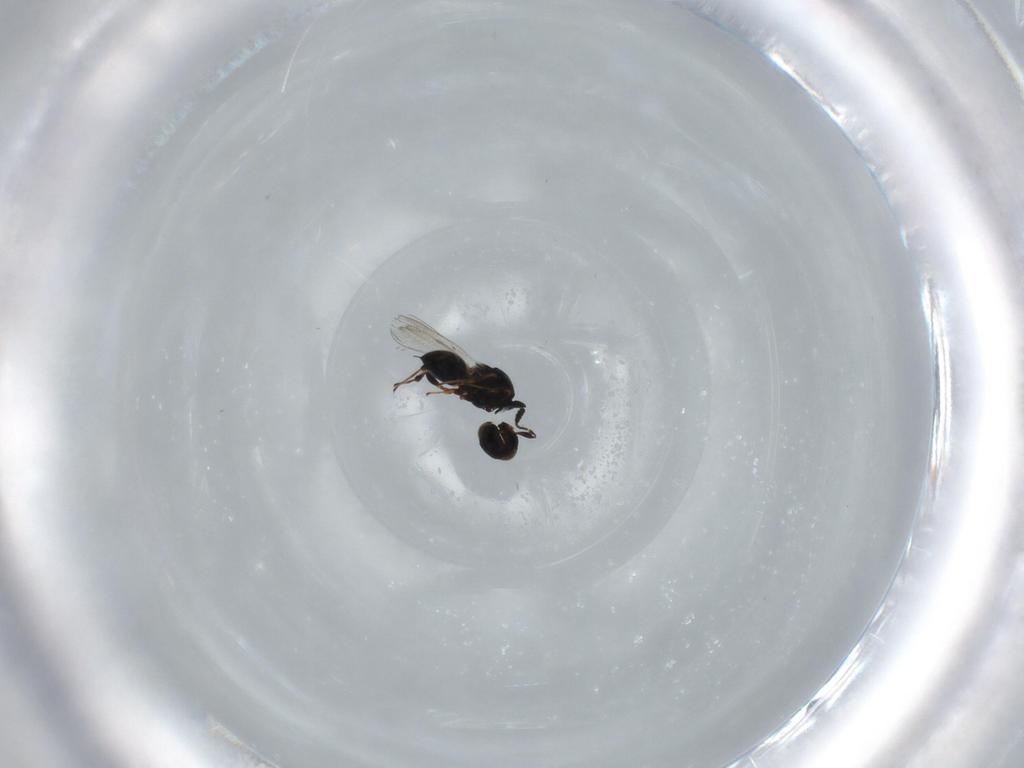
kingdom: Animalia
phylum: Arthropoda
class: Insecta
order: Hymenoptera
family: Platygastridae
